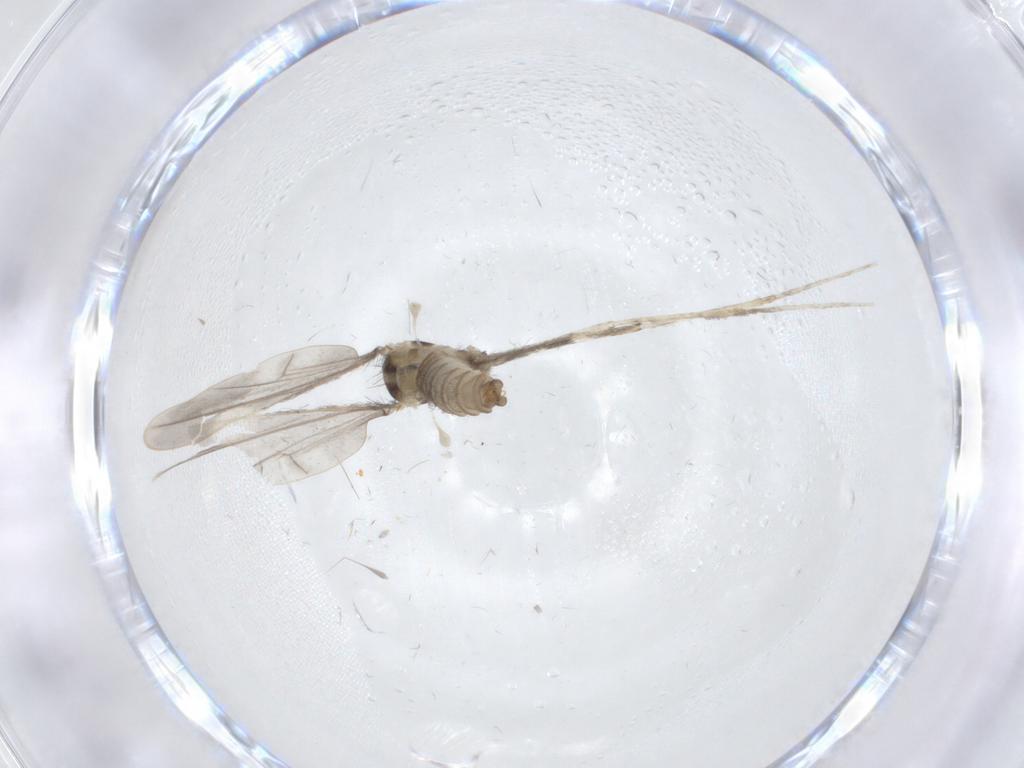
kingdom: Animalia
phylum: Arthropoda
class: Insecta
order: Diptera
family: Cecidomyiidae
